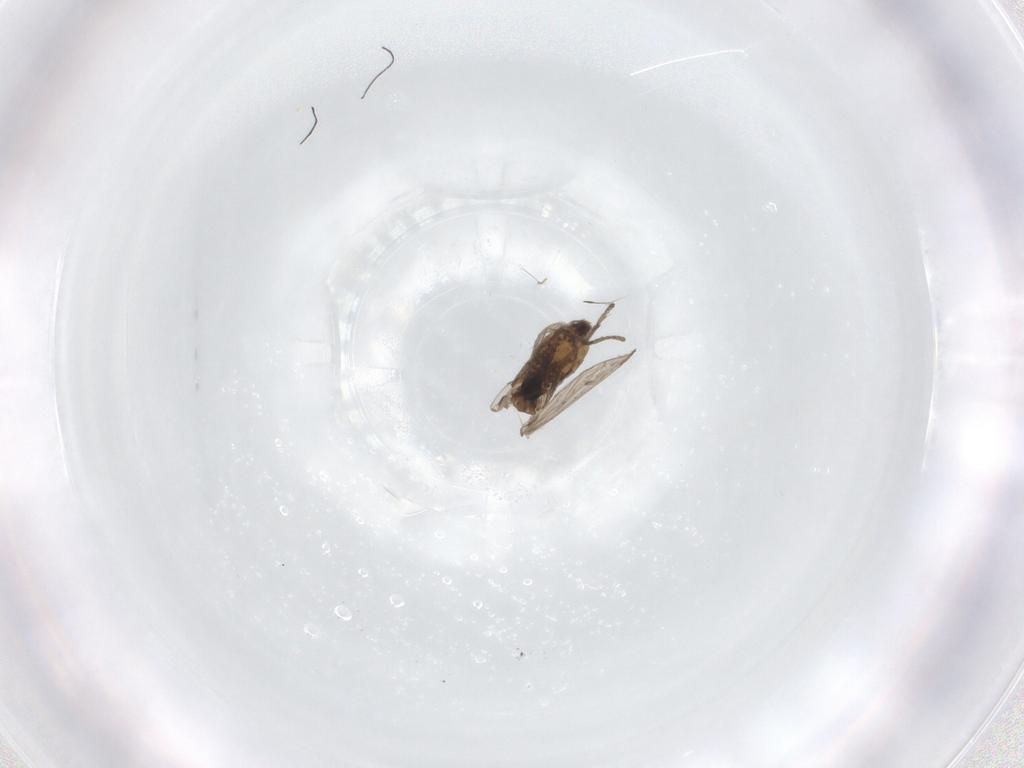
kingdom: Animalia
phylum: Arthropoda
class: Insecta
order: Diptera
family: Psychodidae
